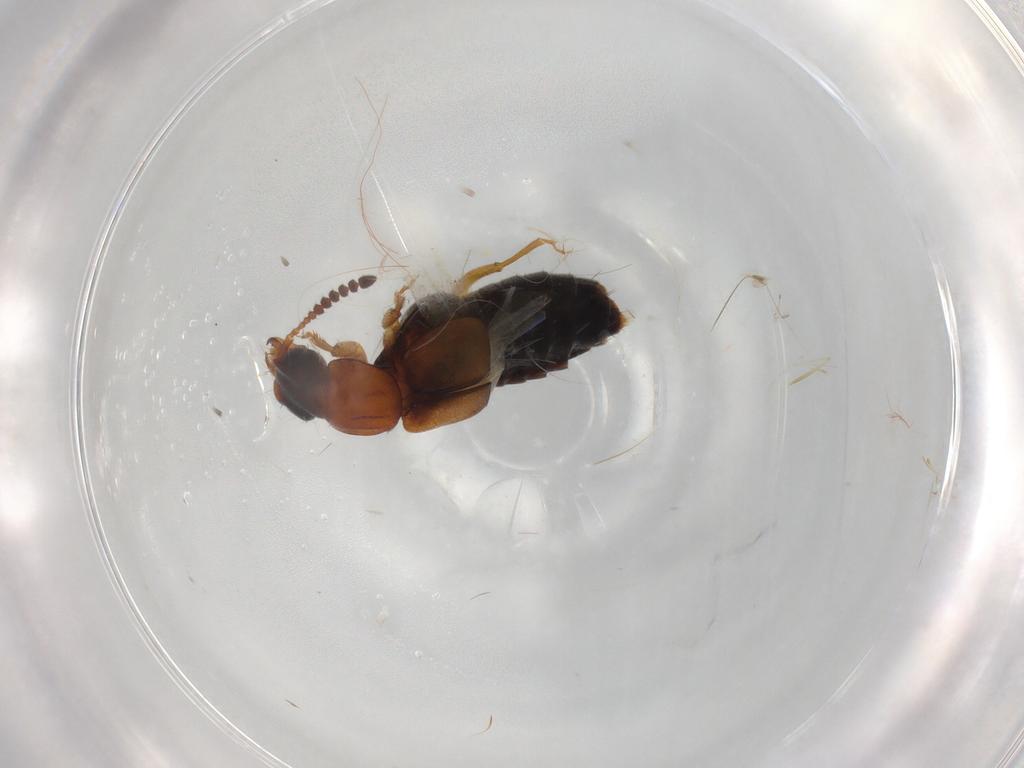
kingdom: Animalia
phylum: Arthropoda
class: Insecta
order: Coleoptera
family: Staphylinidae
